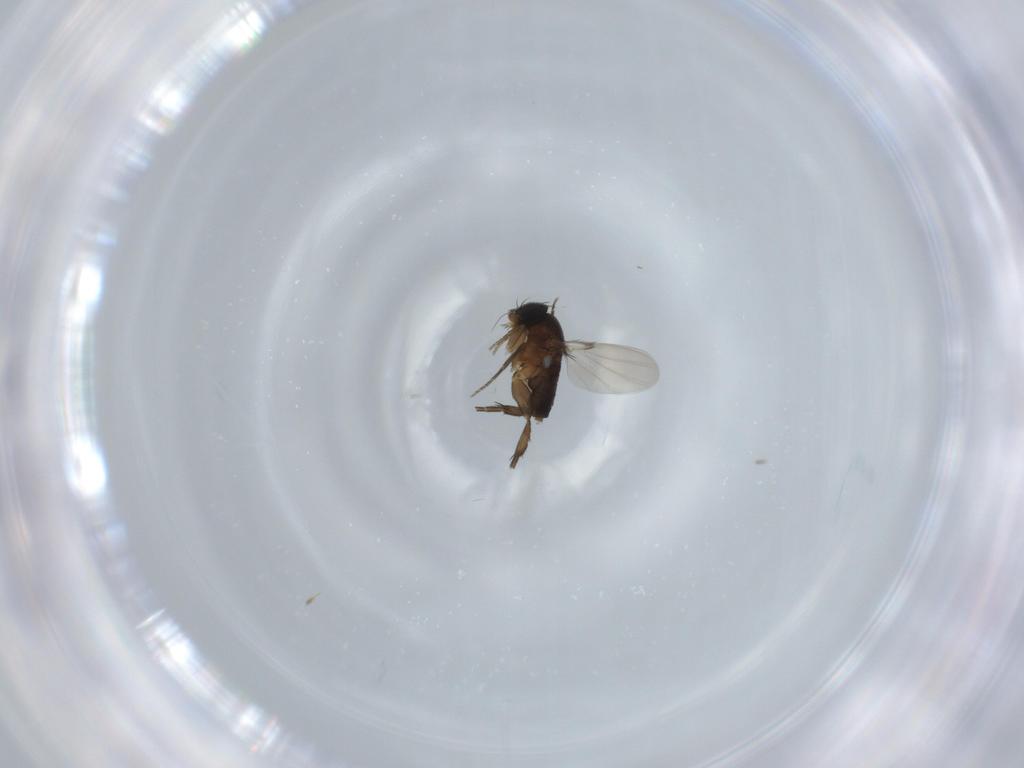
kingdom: Animalia
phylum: Arthropoda
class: Insecta
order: Diptera
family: Phoridae
